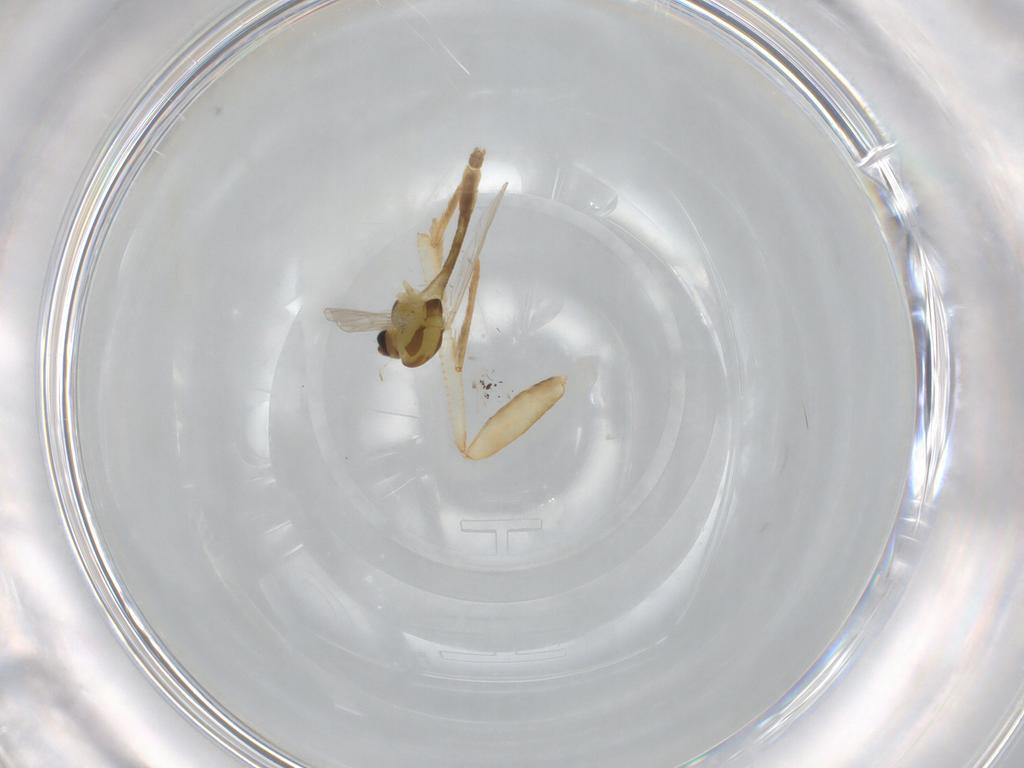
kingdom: Animalia
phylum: Arthropoda
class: Insecta
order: Diptera
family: Chironomidae
